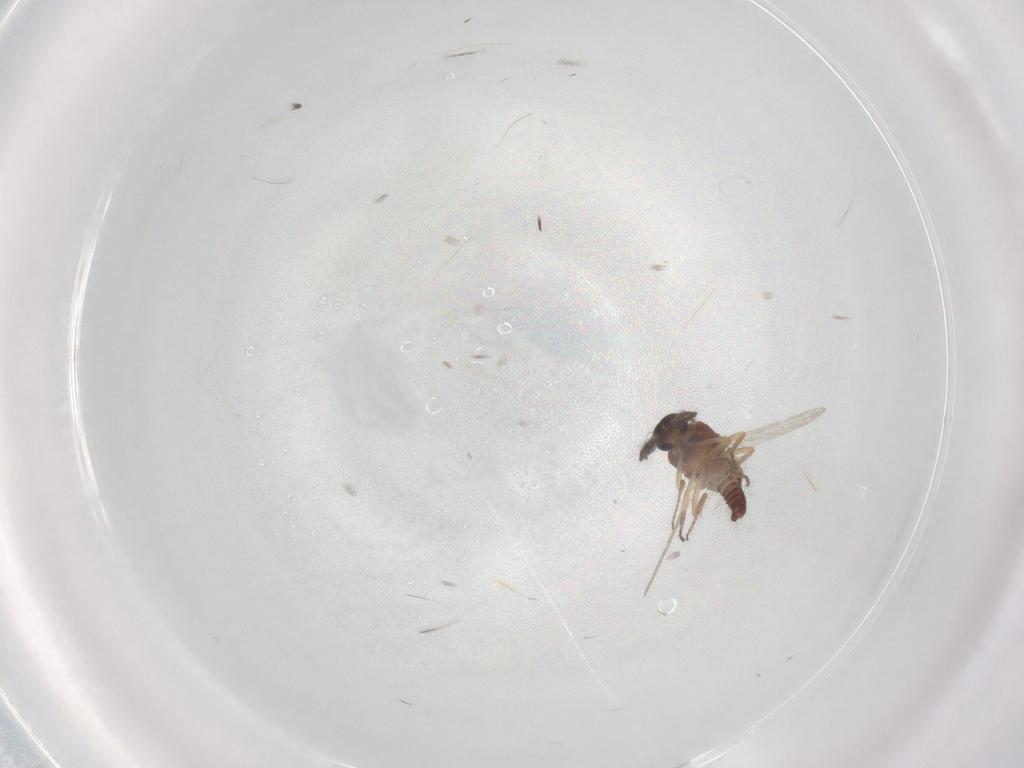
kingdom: Animalia
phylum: Arthropoda
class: Insecta
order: Diptera
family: Ceratopogonidae
